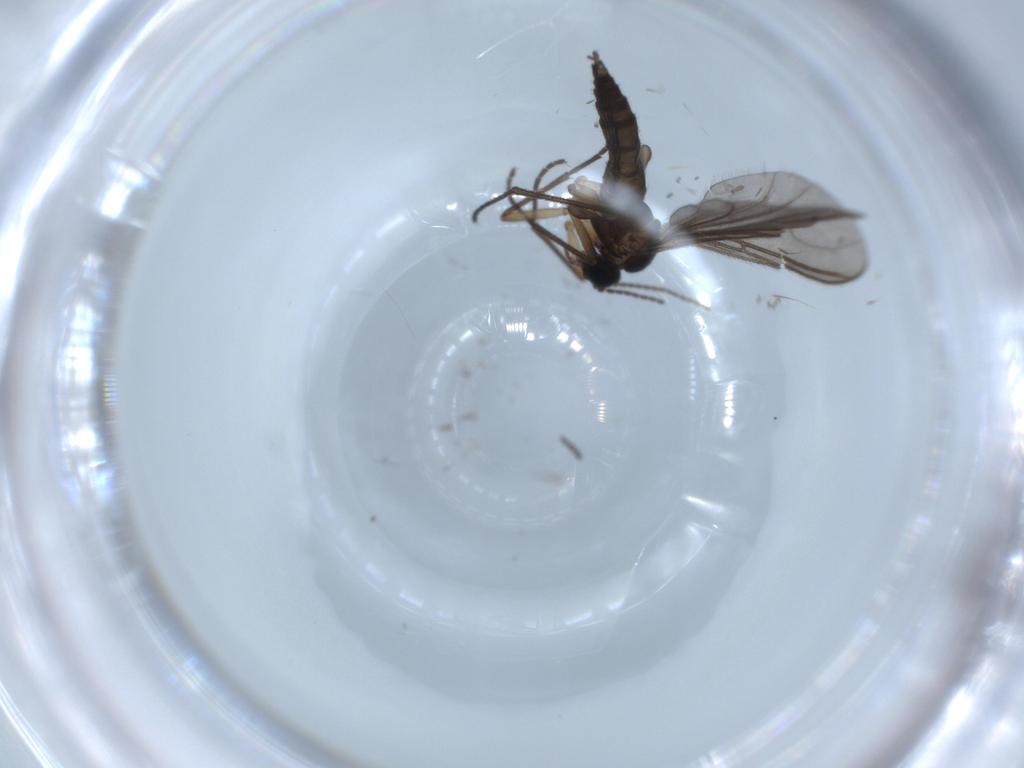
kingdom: Animalia
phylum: Arthropoda
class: Insecta
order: Diptera
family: Sciaridae
